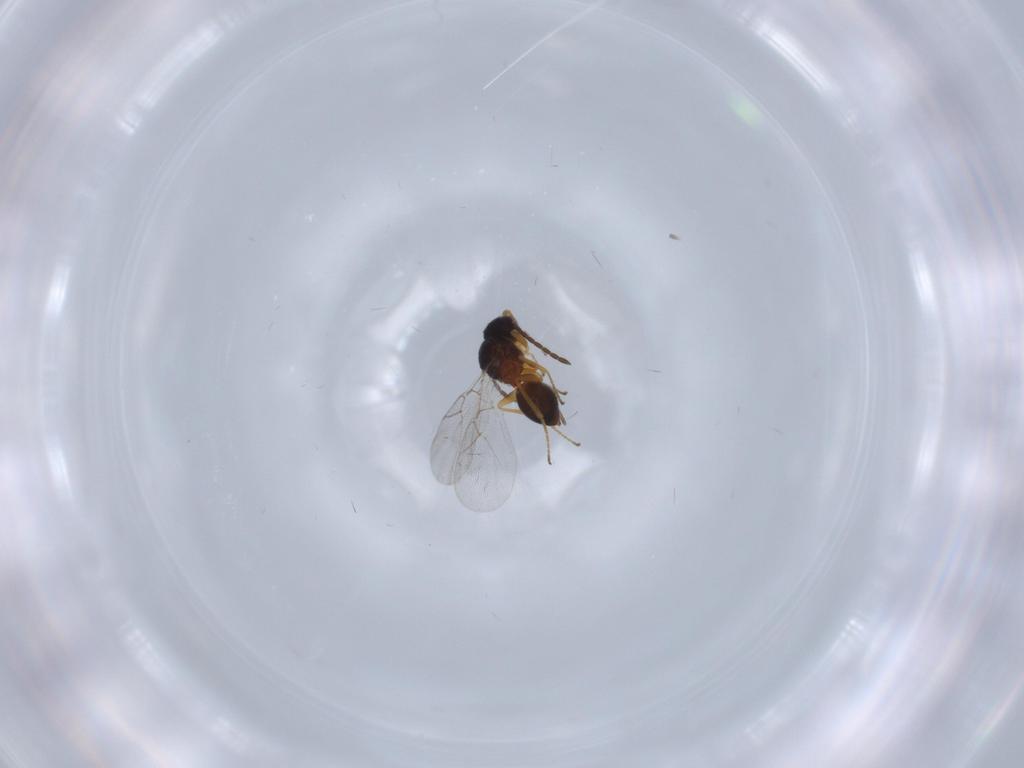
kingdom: Animalia
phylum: Arthropoda
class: Insecta
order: Hymenoptera
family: Figitidae
